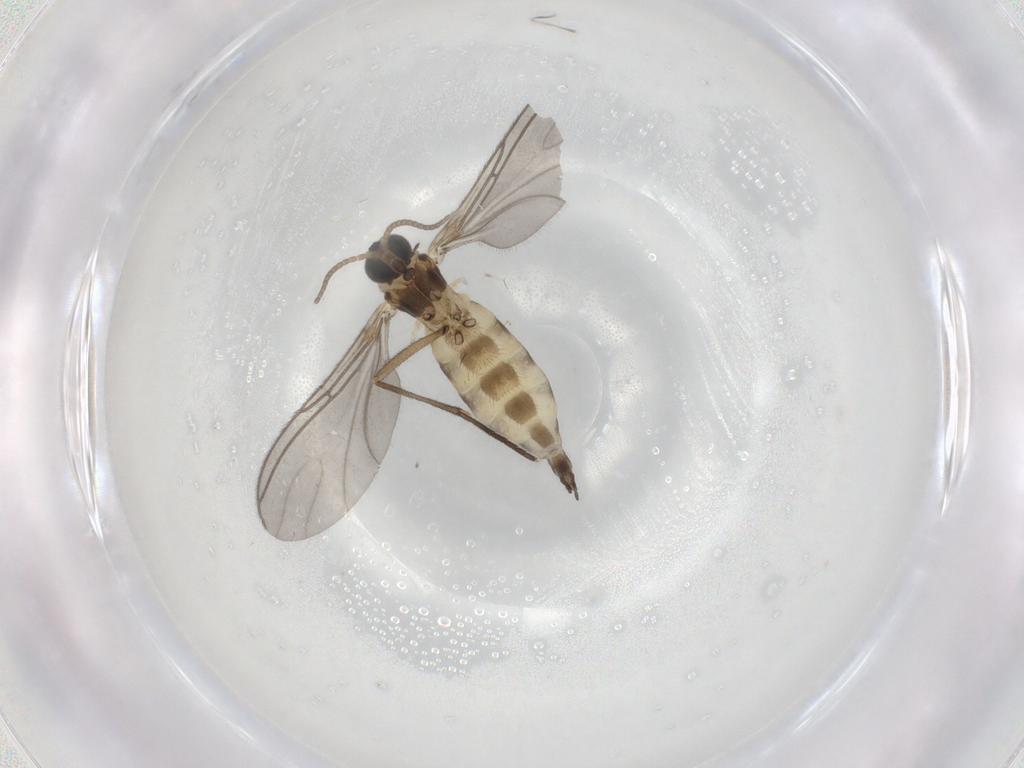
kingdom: Animalia
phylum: Arthropoda
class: Insecta
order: Diptera
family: Sciaridae
